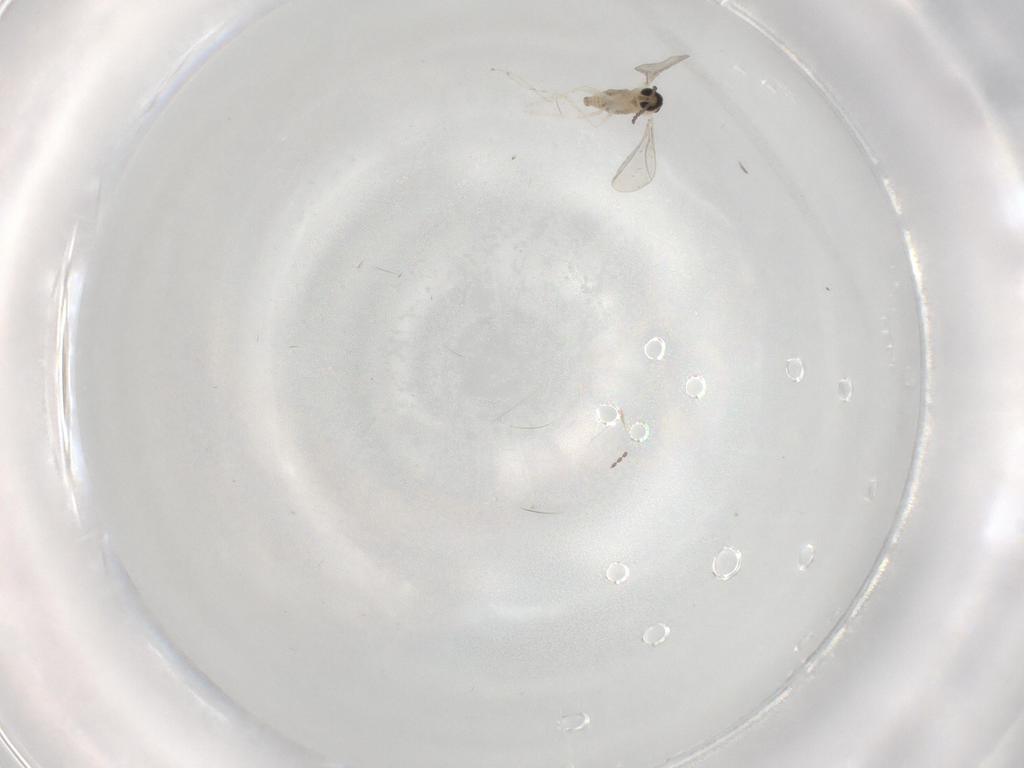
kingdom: Animalia
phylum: Arthropoda
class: Insecta
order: Diptera
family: Cecidomyiidae
